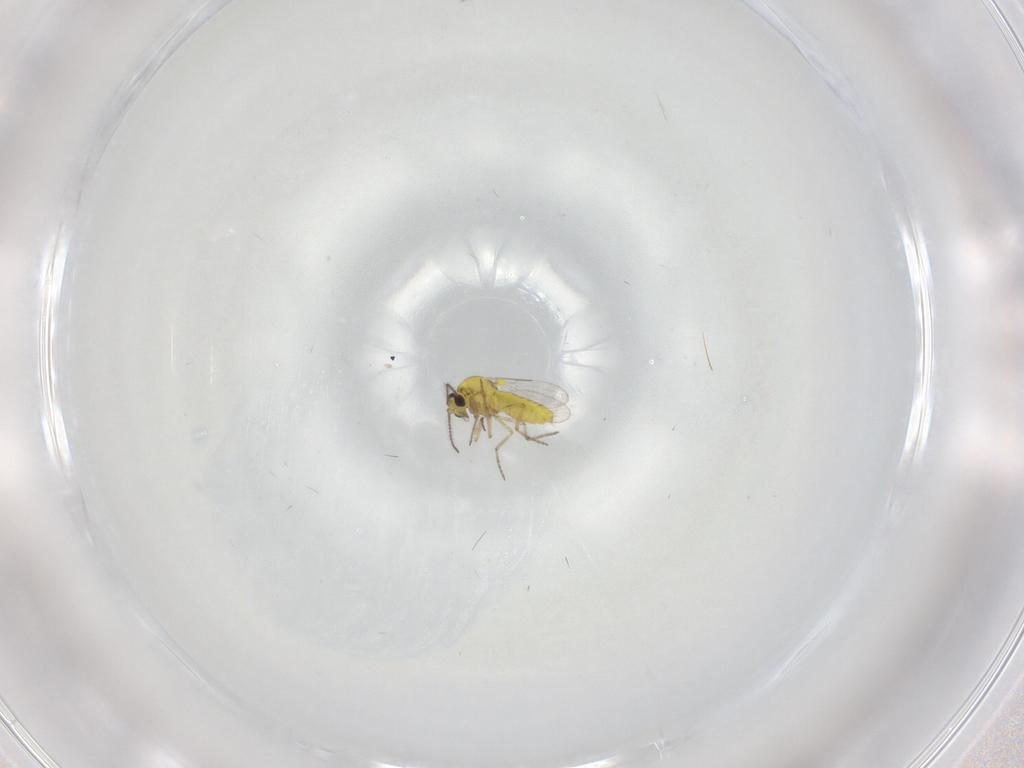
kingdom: Animalia
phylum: Arthropoda
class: Insecta
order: Diptera
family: Ceratopogonidae
